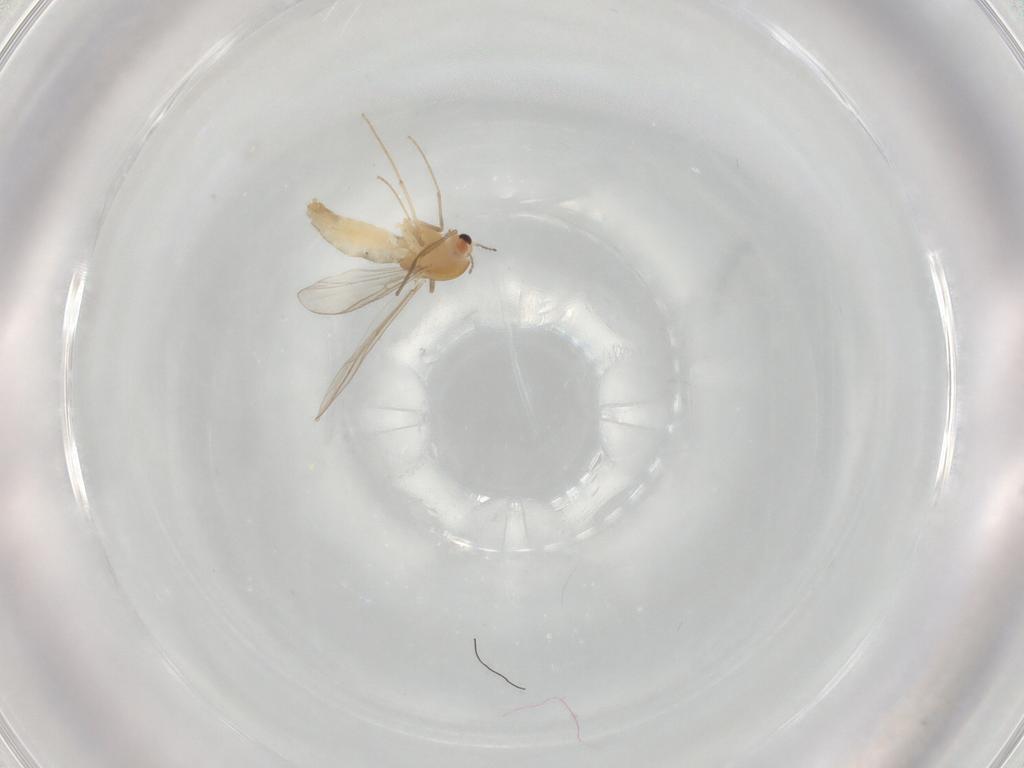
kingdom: Animalia
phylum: Arthropoda
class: Insecta
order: Diptera
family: Chironomidae
